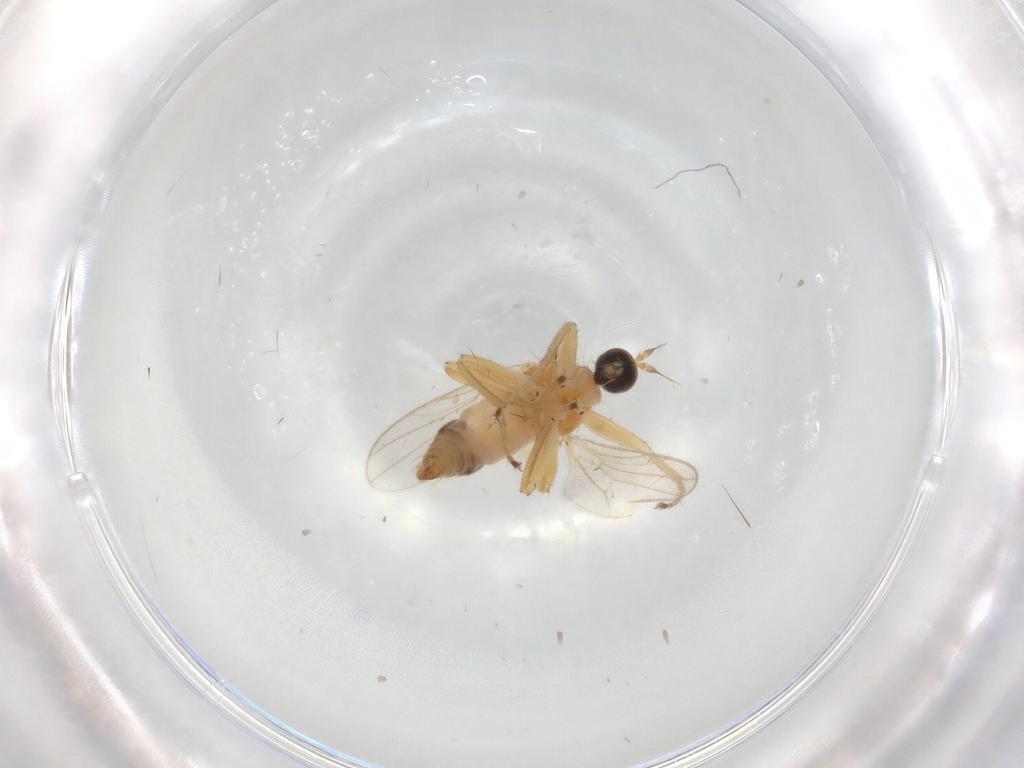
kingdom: Animalia
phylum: Arthropoda
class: Insecta
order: Diptera
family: Hybotidae
